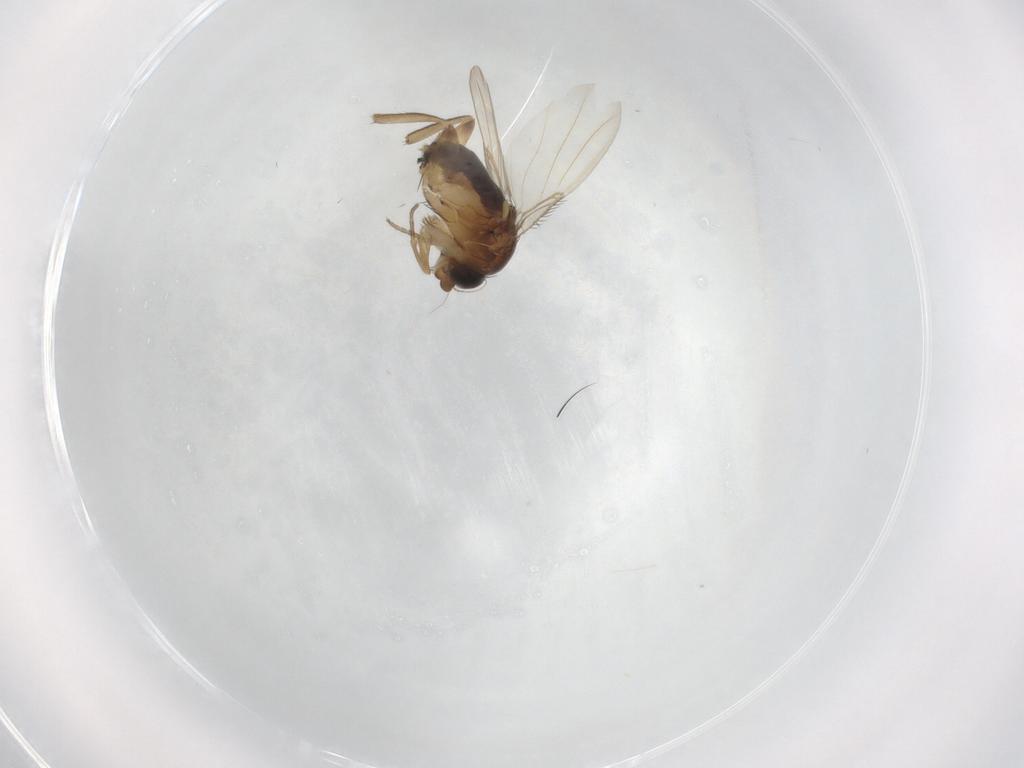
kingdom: Animalia
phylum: Arthropoda
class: Insecta
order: Diptera
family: Phoridae
